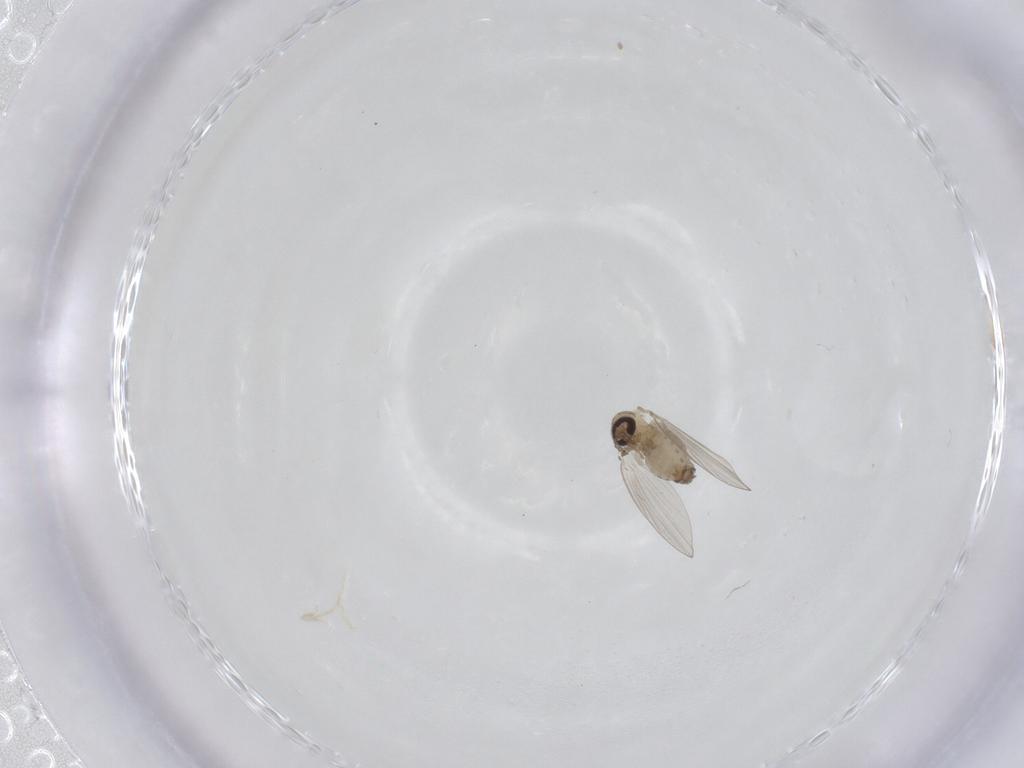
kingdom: Animalia
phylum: Arthropoda
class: Insecta
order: Diptera
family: Psychodidae
